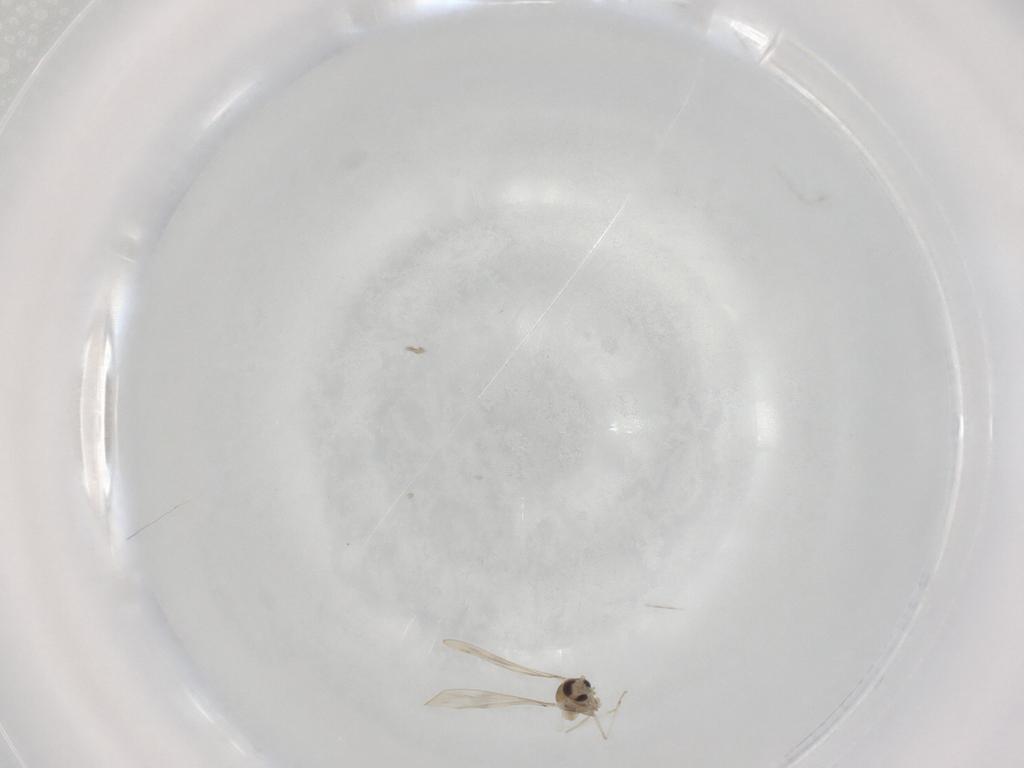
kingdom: Animalia
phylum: Arthropoda
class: Insecta
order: Diptera
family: Cecidomyiidae
